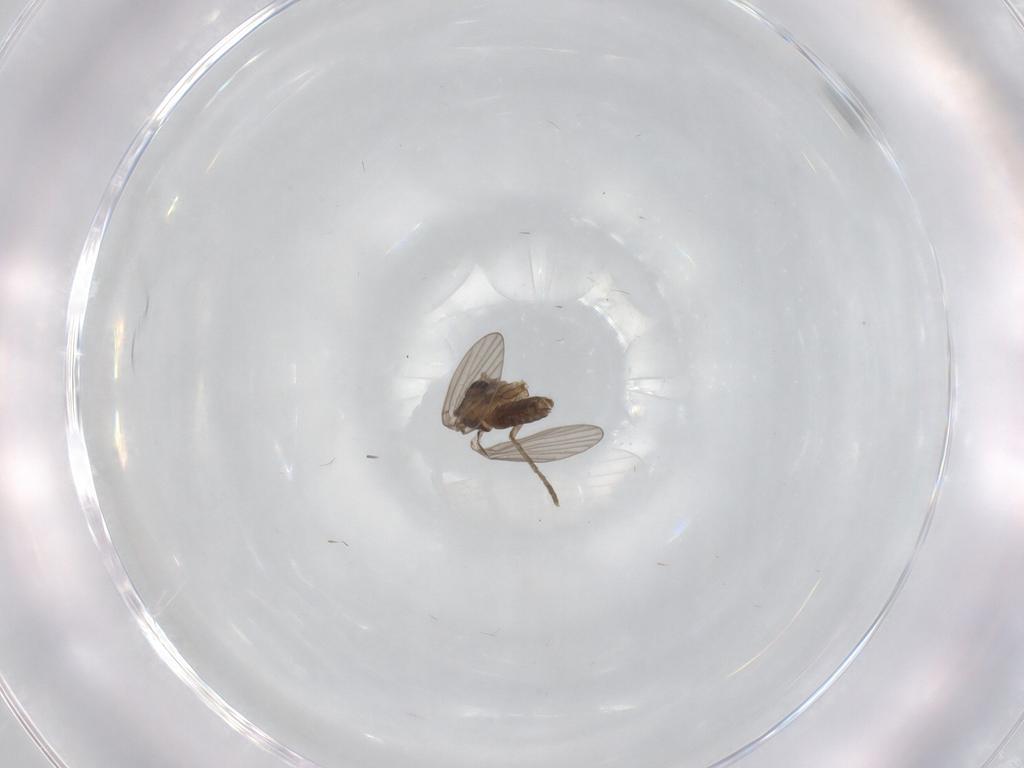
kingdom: Animalia
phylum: Arthropoda
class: Insecta
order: Diptera
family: Psychodidae
